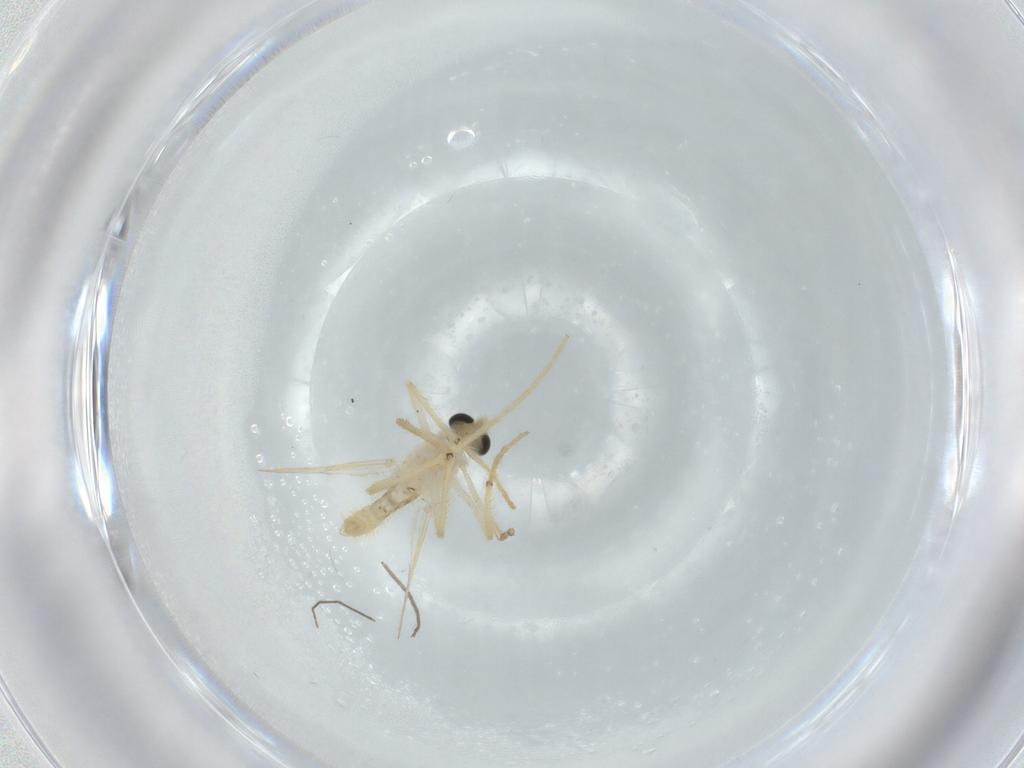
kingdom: Animalia
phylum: Arthropoda
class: Insecta
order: Diptera
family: Chironomidae
